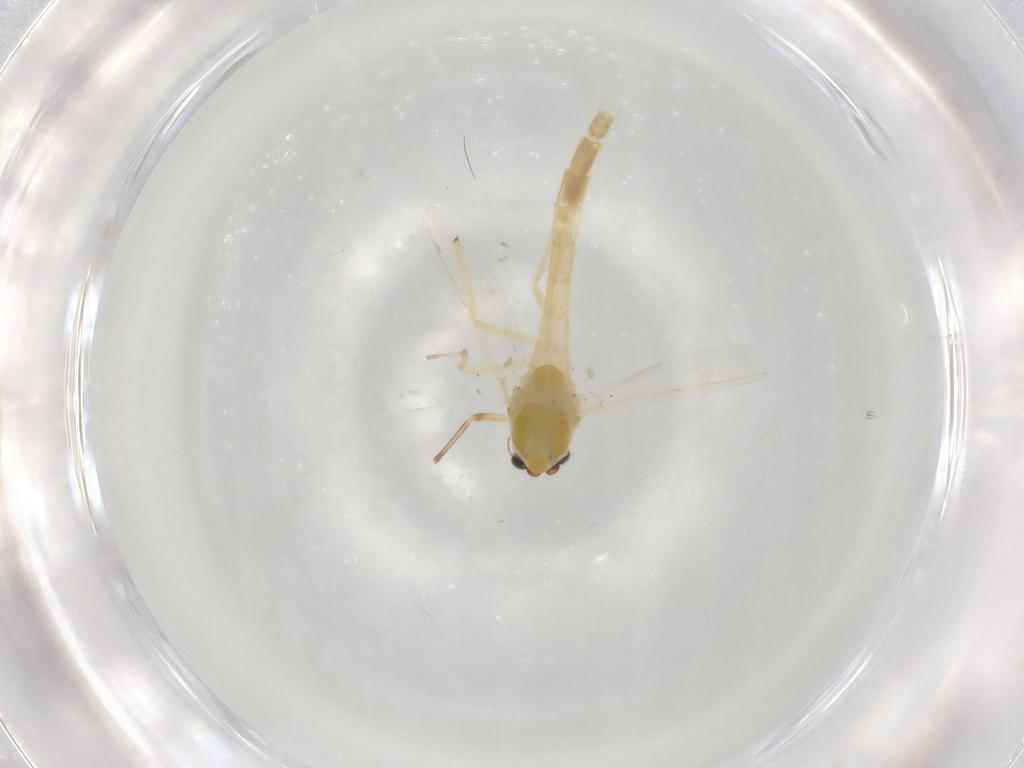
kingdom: Animalia
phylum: Arthropoda
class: Insecta
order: Diptera
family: Chironomidae
